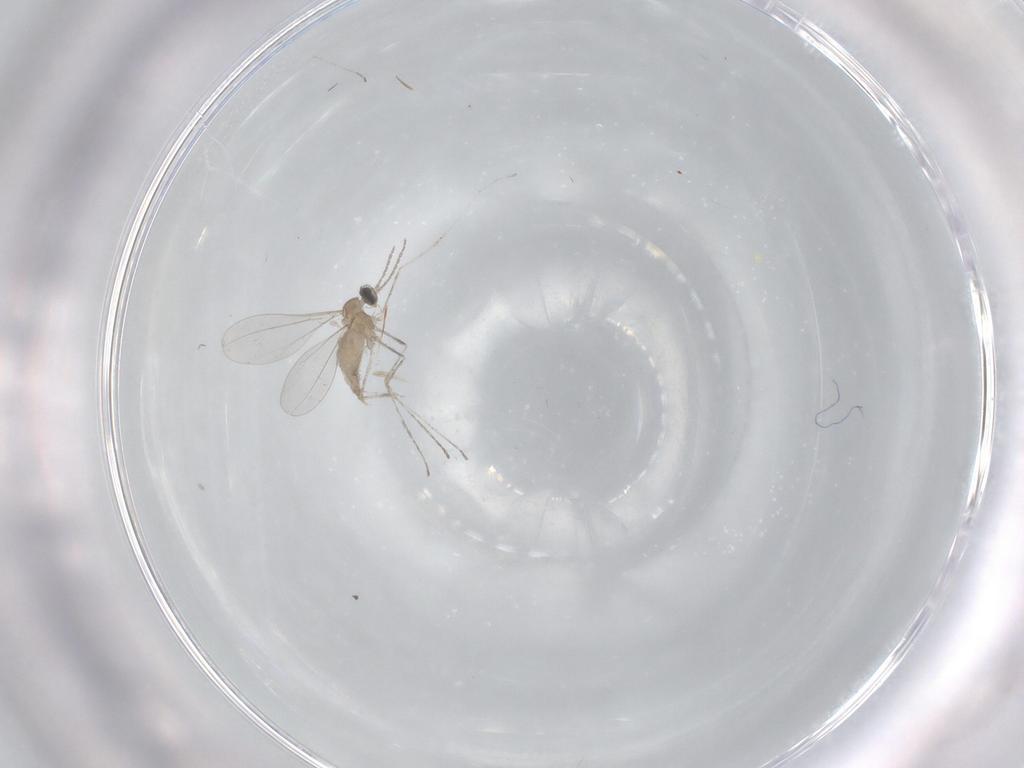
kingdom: Animalia
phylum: Arthropoda
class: Insecta
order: Diptera
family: Cecidomyiidae
